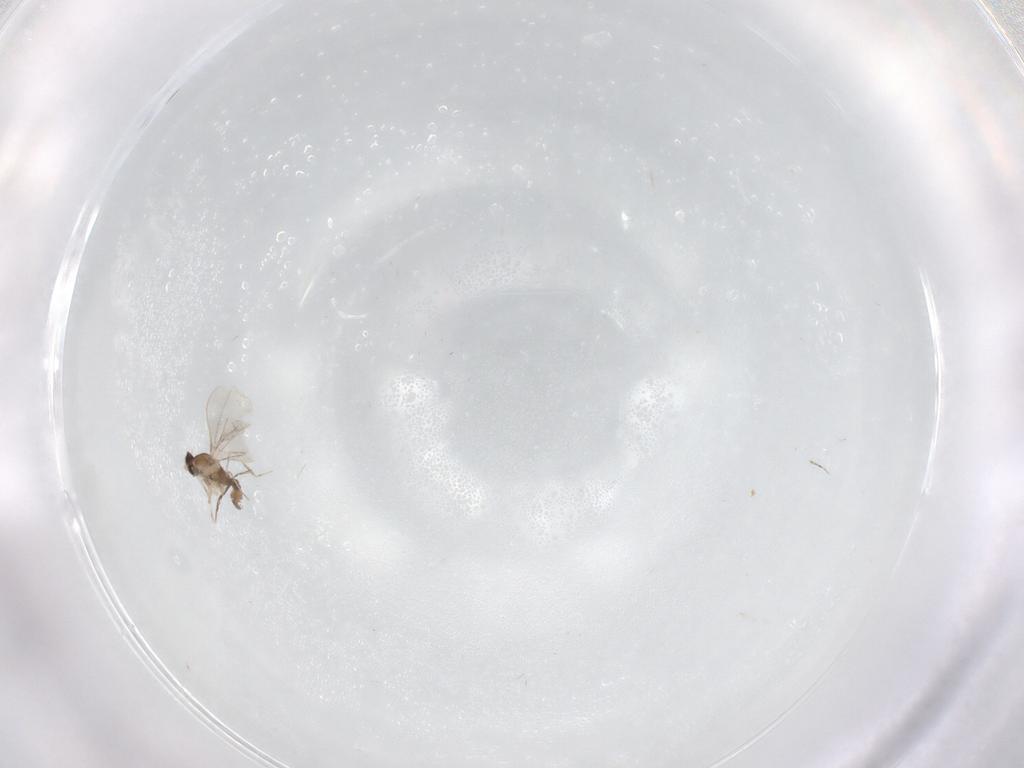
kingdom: Animalia
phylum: Arthropoda
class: Insecta
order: Diptera
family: Cecidomyiidae
